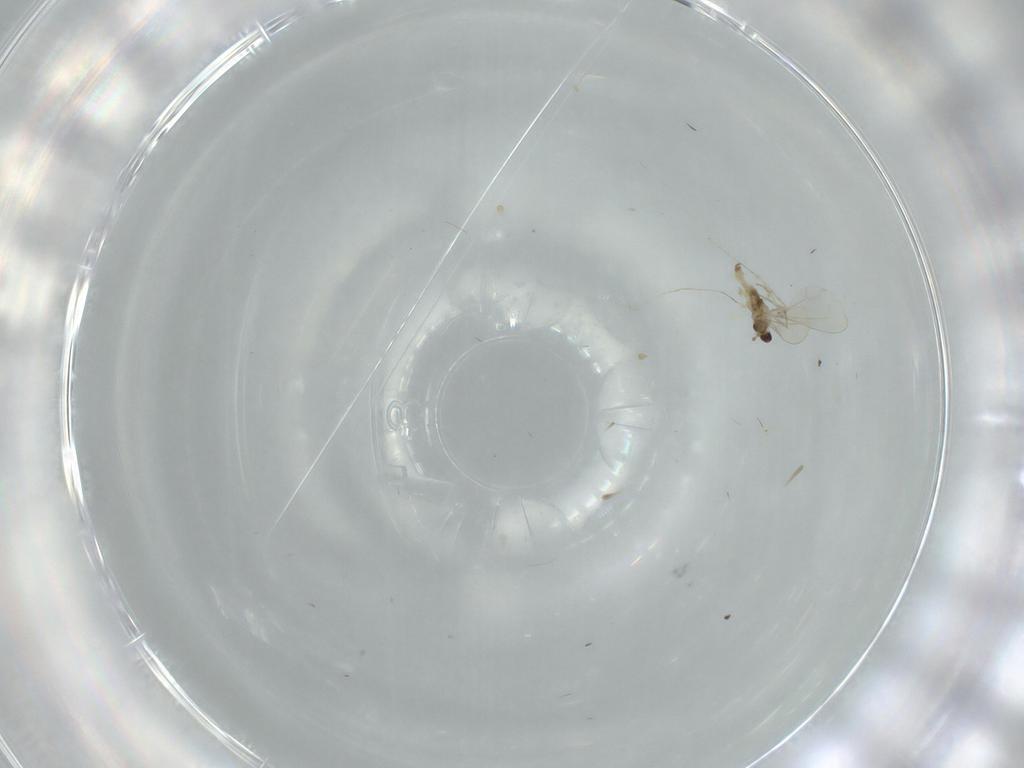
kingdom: Animalia
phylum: Arthropoda
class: Insecta
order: Diptera
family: Cecidomyiidae
